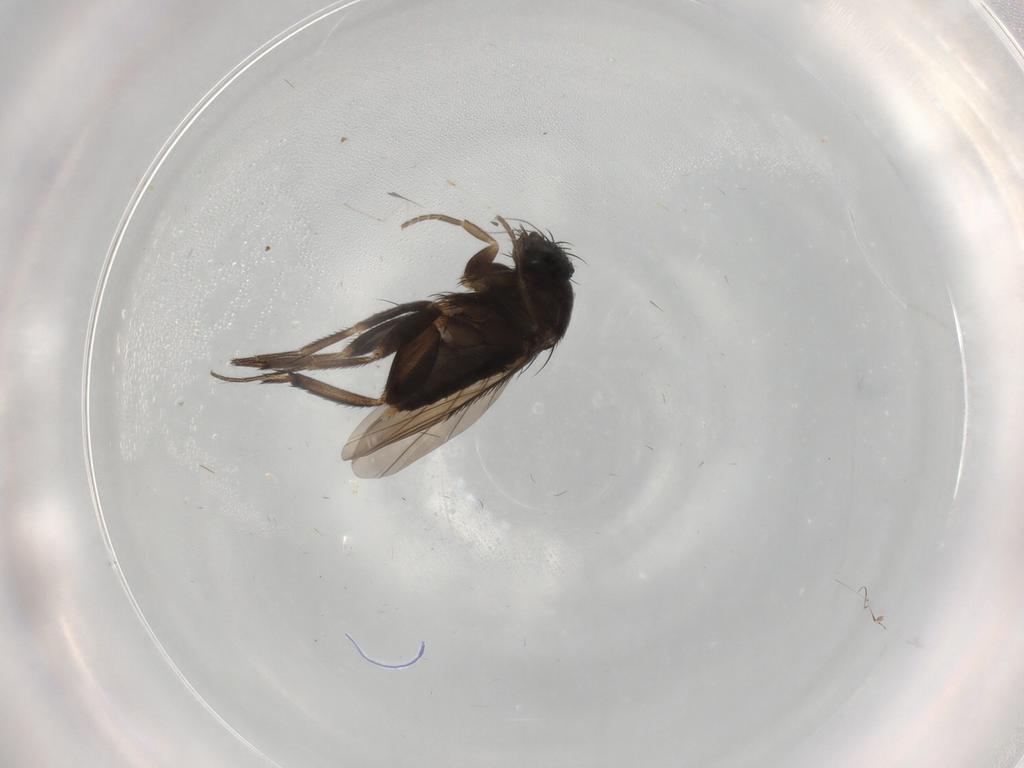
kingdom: Animalia
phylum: Arthropoda
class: Insecta
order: Diptera
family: Phoridae
